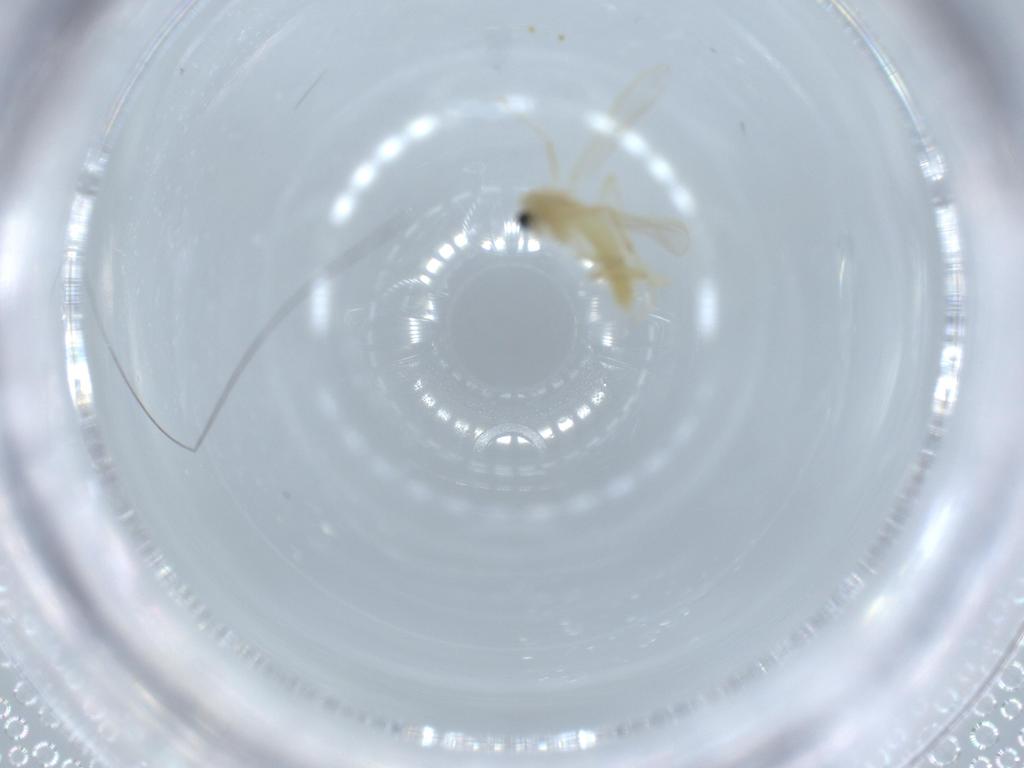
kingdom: Animalia
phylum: Arthropoda
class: Insecta
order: Diptera
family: Chironomidae
